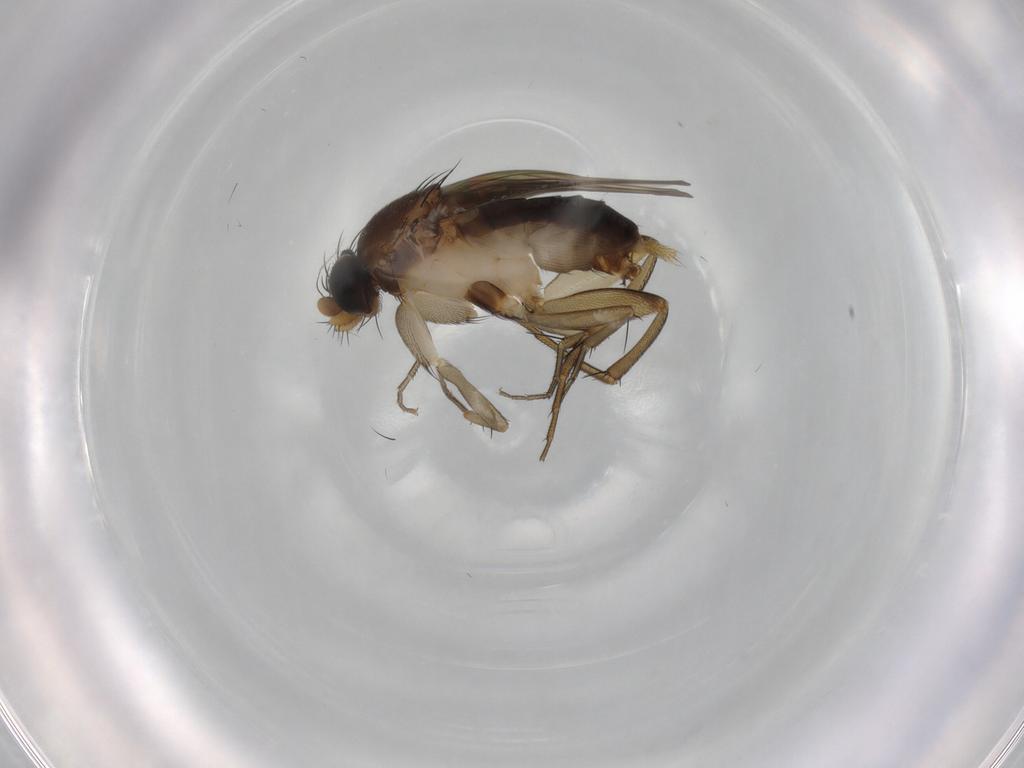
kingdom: Animalia
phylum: Arthropoda
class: Insecta
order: Diptera
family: Phoridae
